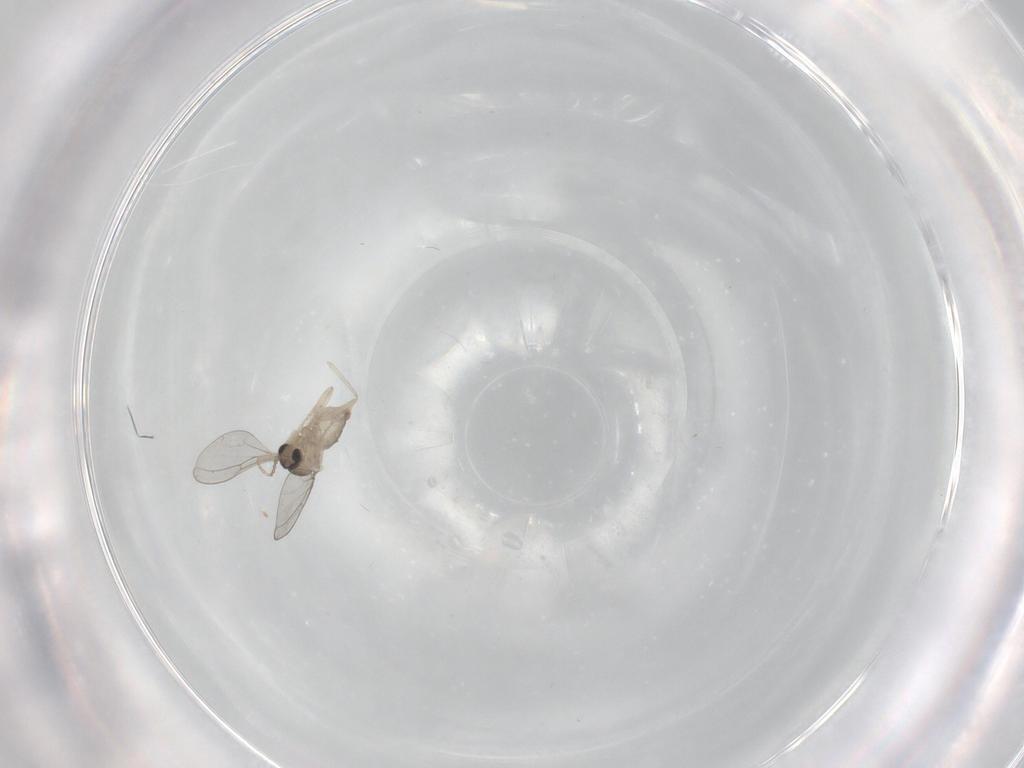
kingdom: Animalia
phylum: Arthropoda
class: Insecta
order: Diptera
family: Cecidomyiidae
